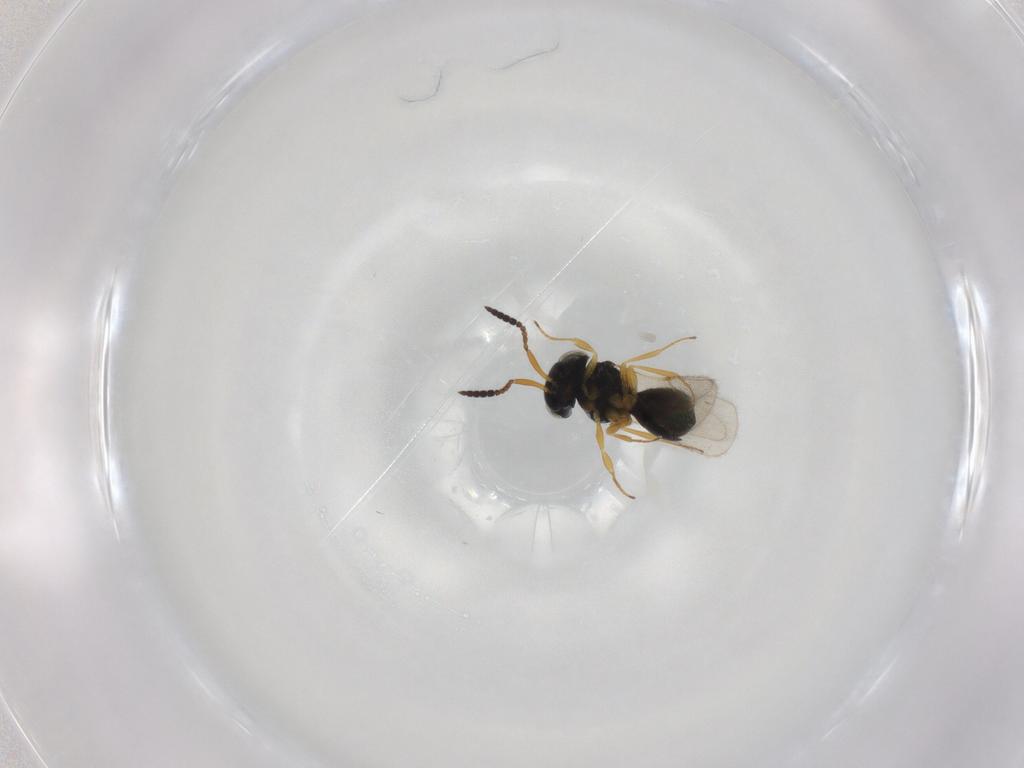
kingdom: Animalia
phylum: Arthropoda
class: Insecta
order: Hymenoptera
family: Scelionidae
